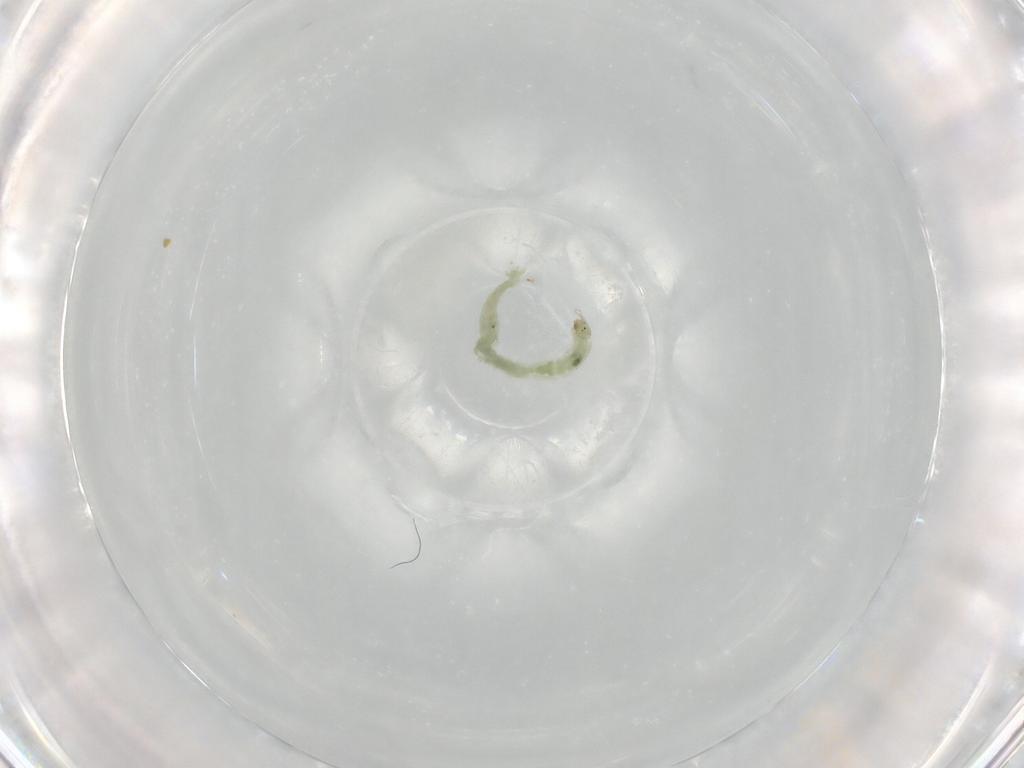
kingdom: Animalia
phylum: Arthropoda
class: Insecta
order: Diptera
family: Chironomidae
